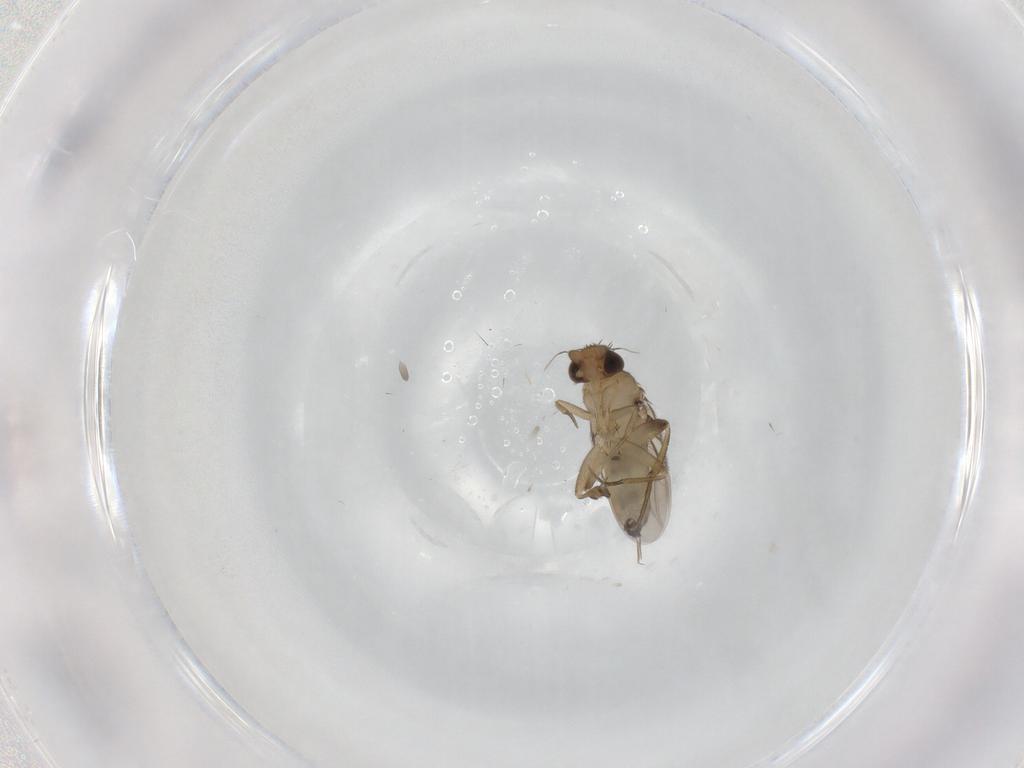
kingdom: Animalia
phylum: Arthropoda
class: Insecta
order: Diptera
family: Phoridae
